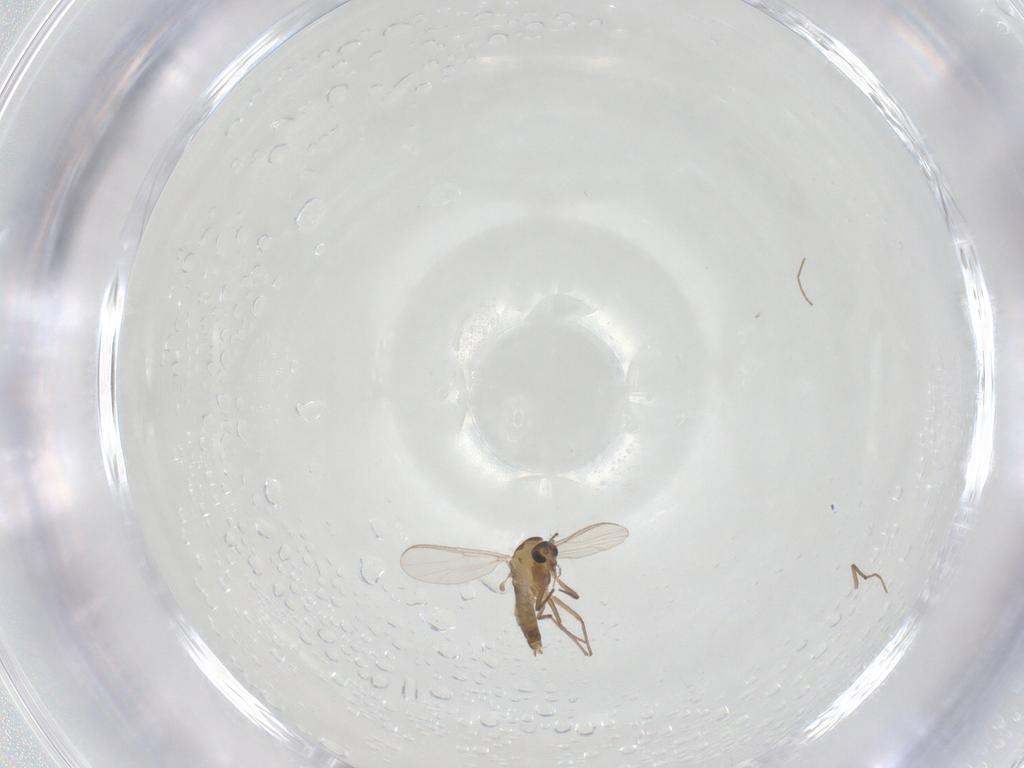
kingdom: Animalia
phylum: Arthropoda
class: Insecta
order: Diptera
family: Chironomidae
